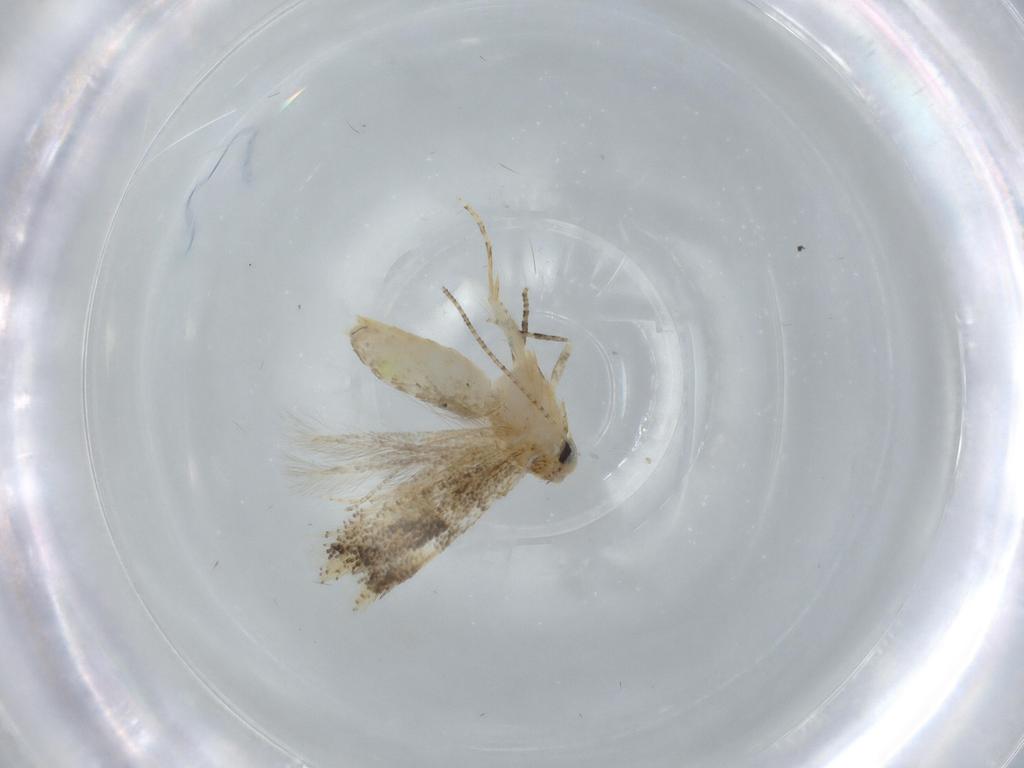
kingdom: Animalia
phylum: Arthropoda
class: Insecta
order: Lepidoptera
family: Bucculatricidae
